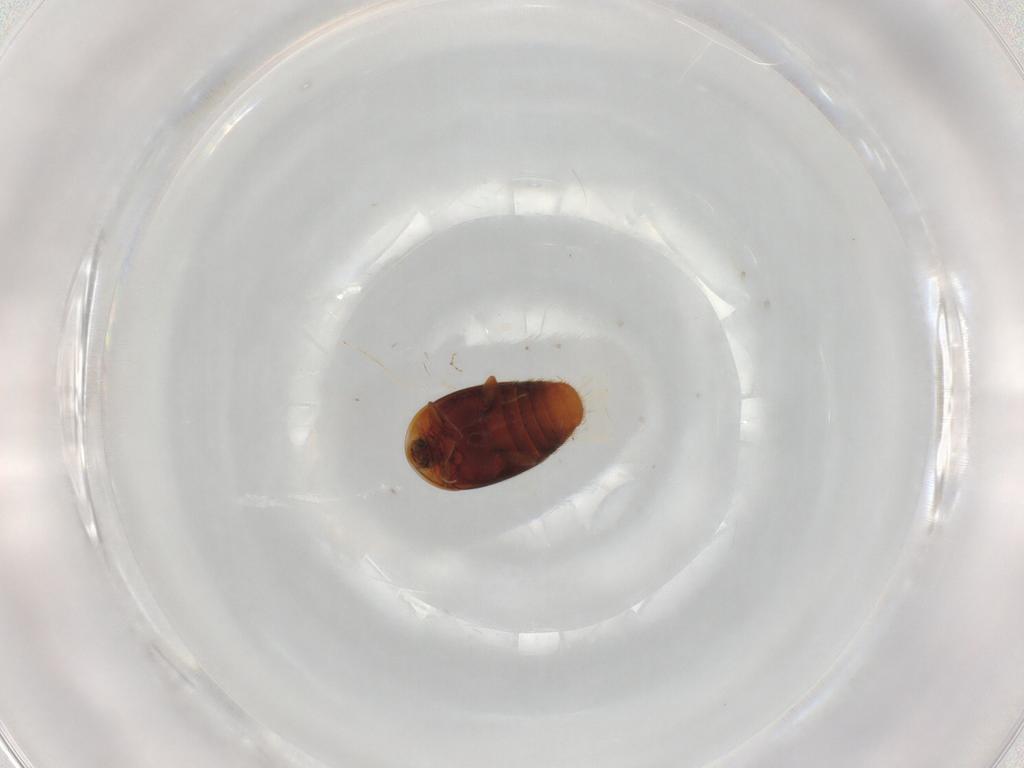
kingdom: Animalia
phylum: Arthropoda
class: Insecta
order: Coleoptera
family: Corylophidae
